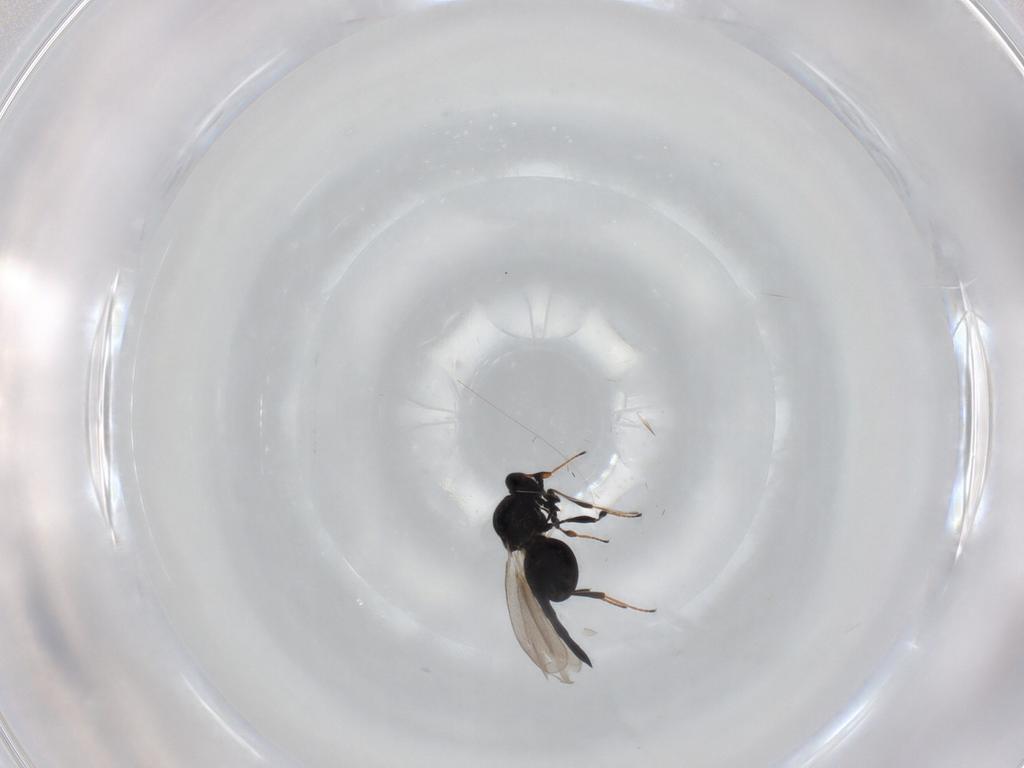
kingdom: Animalia
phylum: Arthropoda
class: Insecta
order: Hymenoptera
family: Platygastridae
